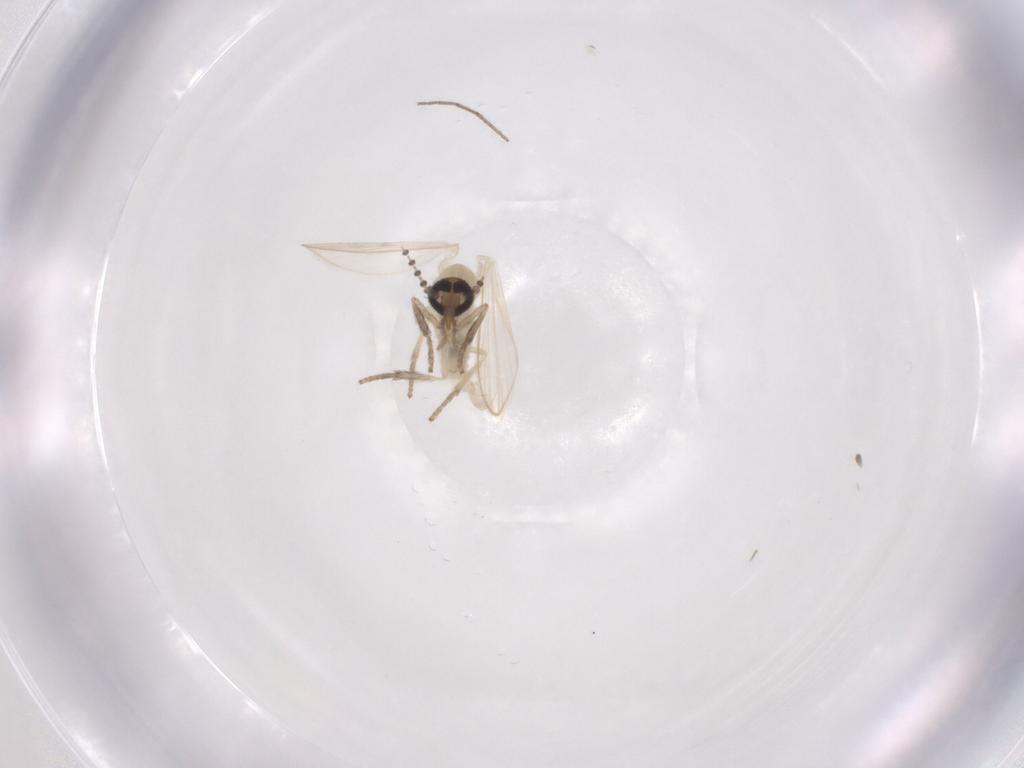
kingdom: Animalia
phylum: Arthropoda
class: Insecta
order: Diptera
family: Psychodidae
